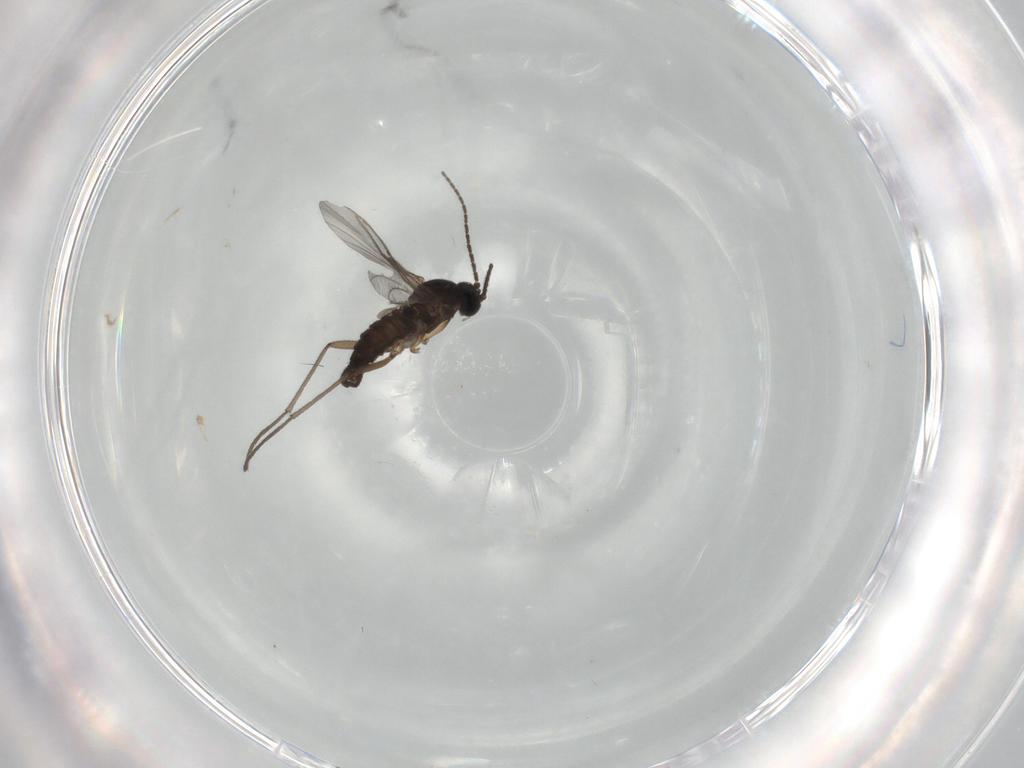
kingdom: Animalia
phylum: Arthropoda
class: Insecta
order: Diptera
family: Sciaridae
